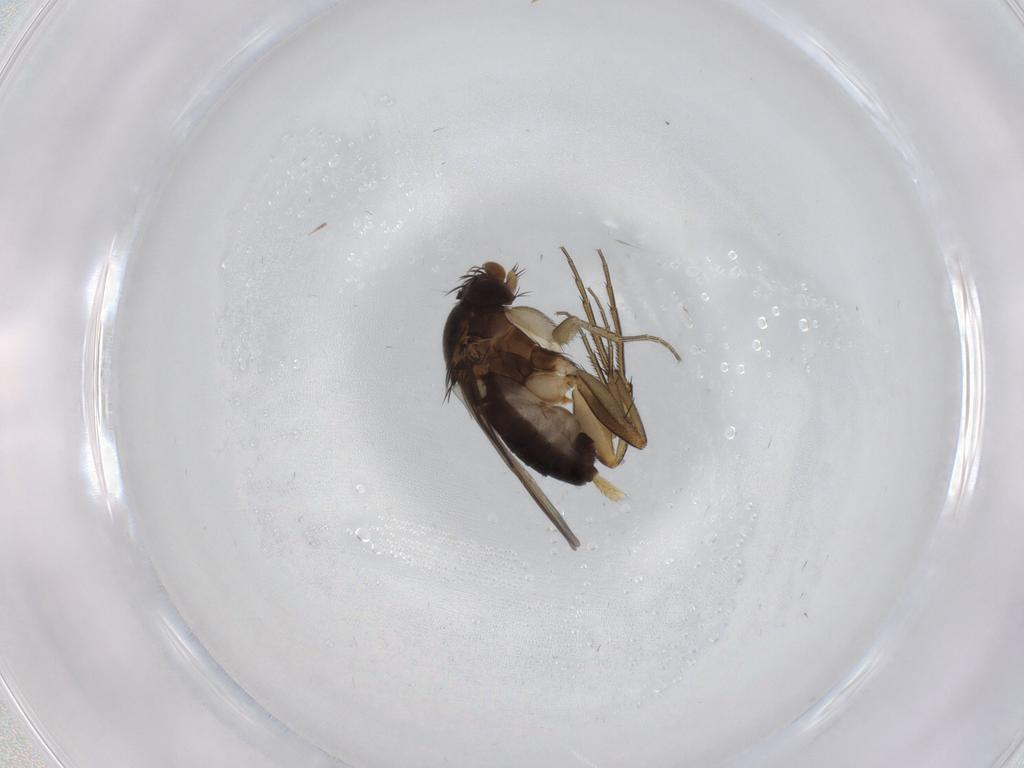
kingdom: Animalia
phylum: Arthropoda
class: Insecta
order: Diptera
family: Phoridae
